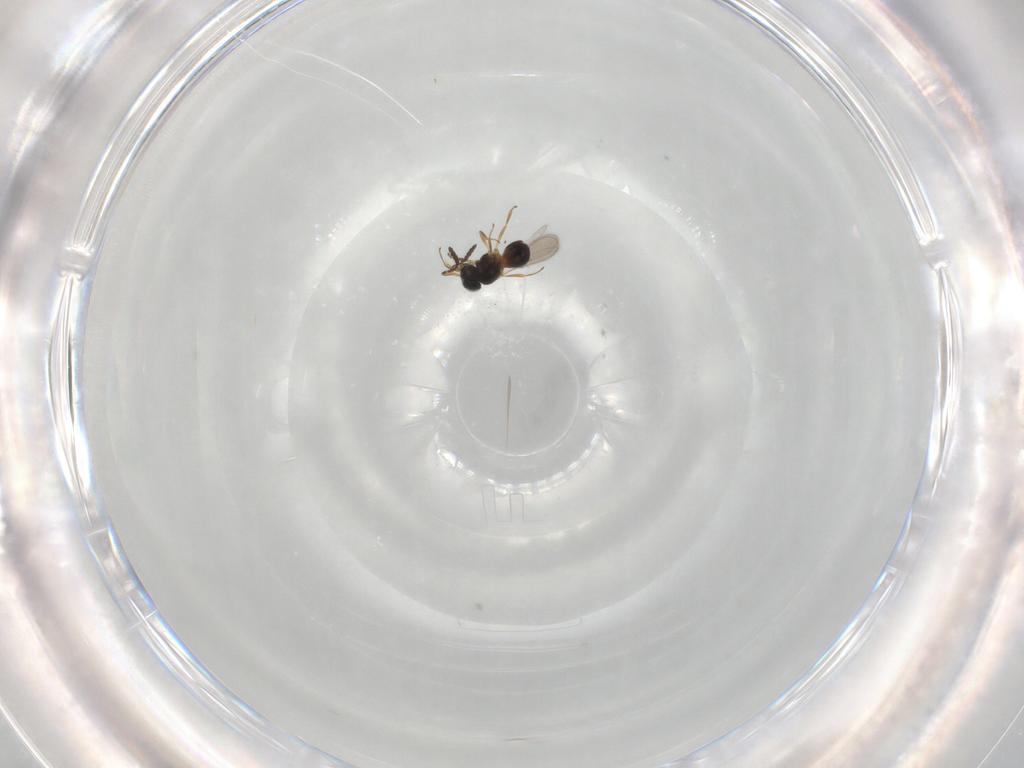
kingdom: Animalia
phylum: Arthropoda
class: Insecta
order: Hymenoptera
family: Scelionidae
